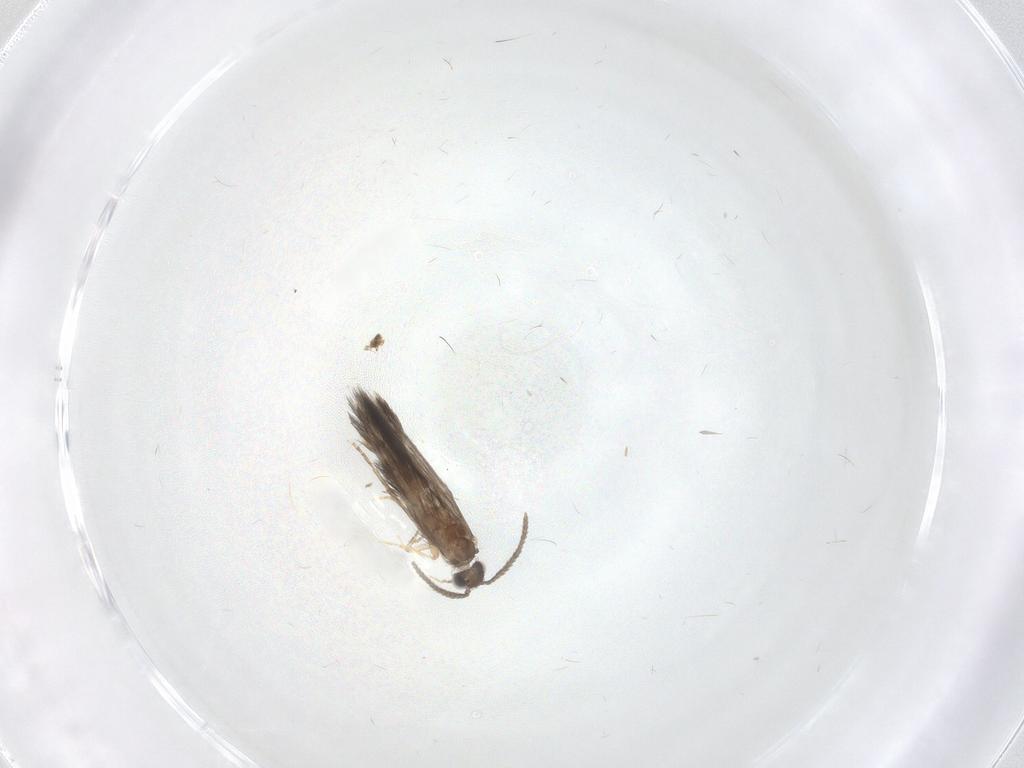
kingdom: Animalia
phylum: Arthropoda
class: Insecta
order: Trichoptera
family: Hydroptilidae
